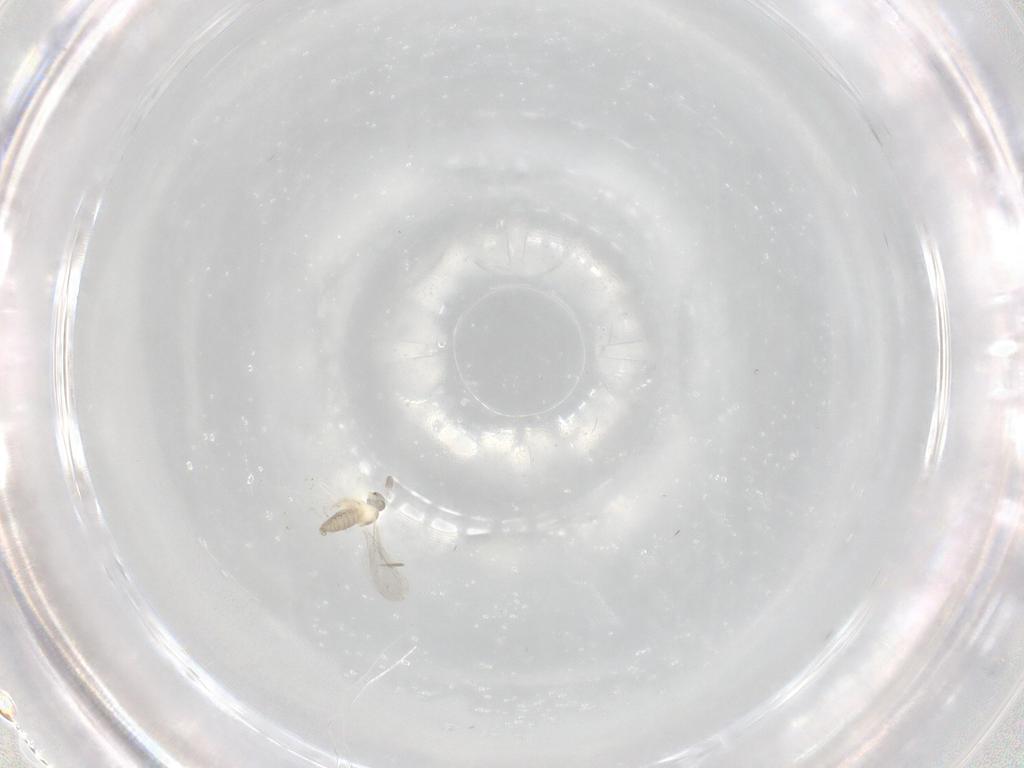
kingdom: Animalia
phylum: Arthropoda
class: Insecta
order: Diptera
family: Cecidomyiidae
